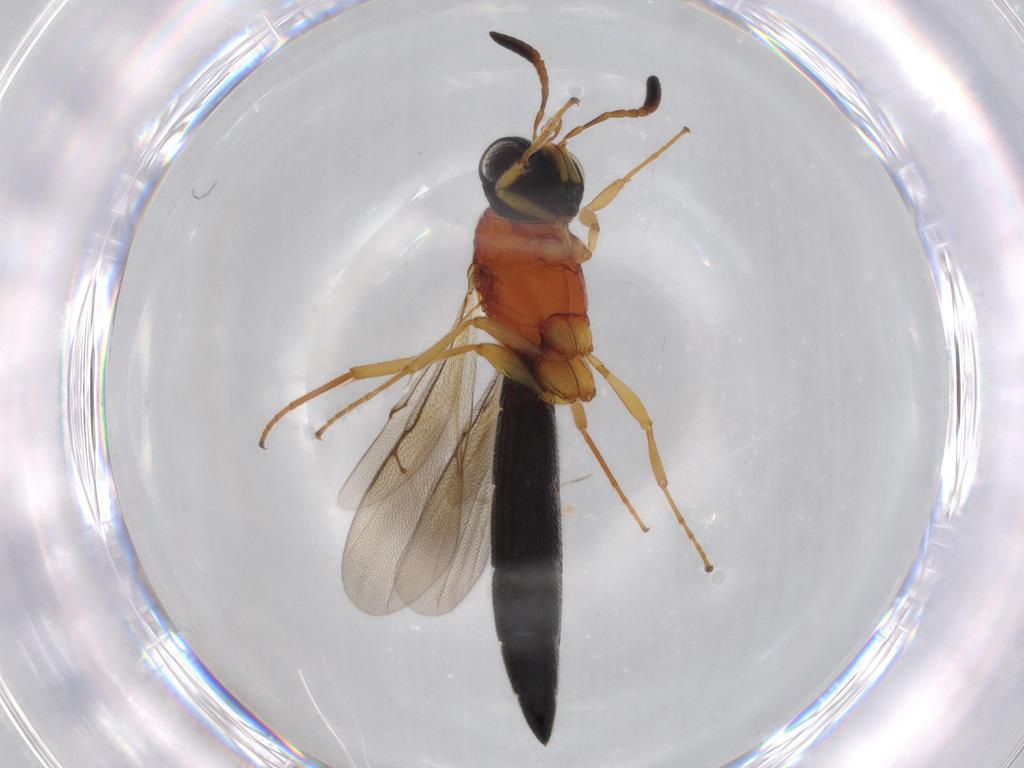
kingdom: Animalia
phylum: Arthropoda
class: Insecta
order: Hymenoptera
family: Scelionidae
